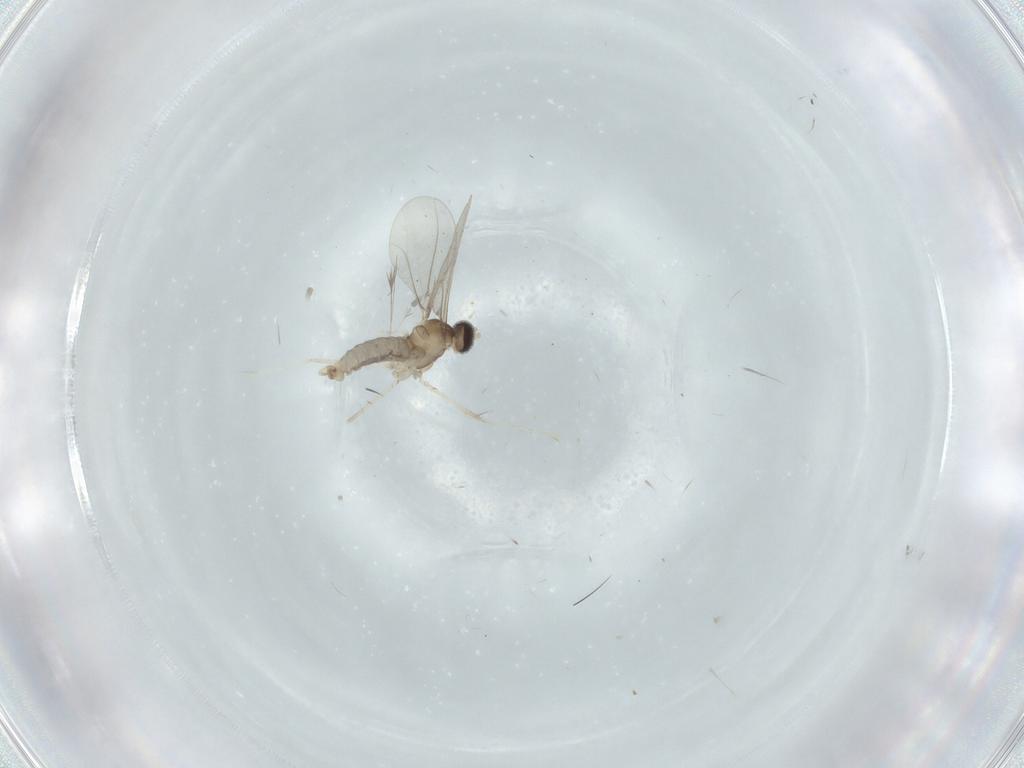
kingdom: Animalia
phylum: Arthropoda
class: Insecta
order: Diptera
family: Cecidomyiidae
